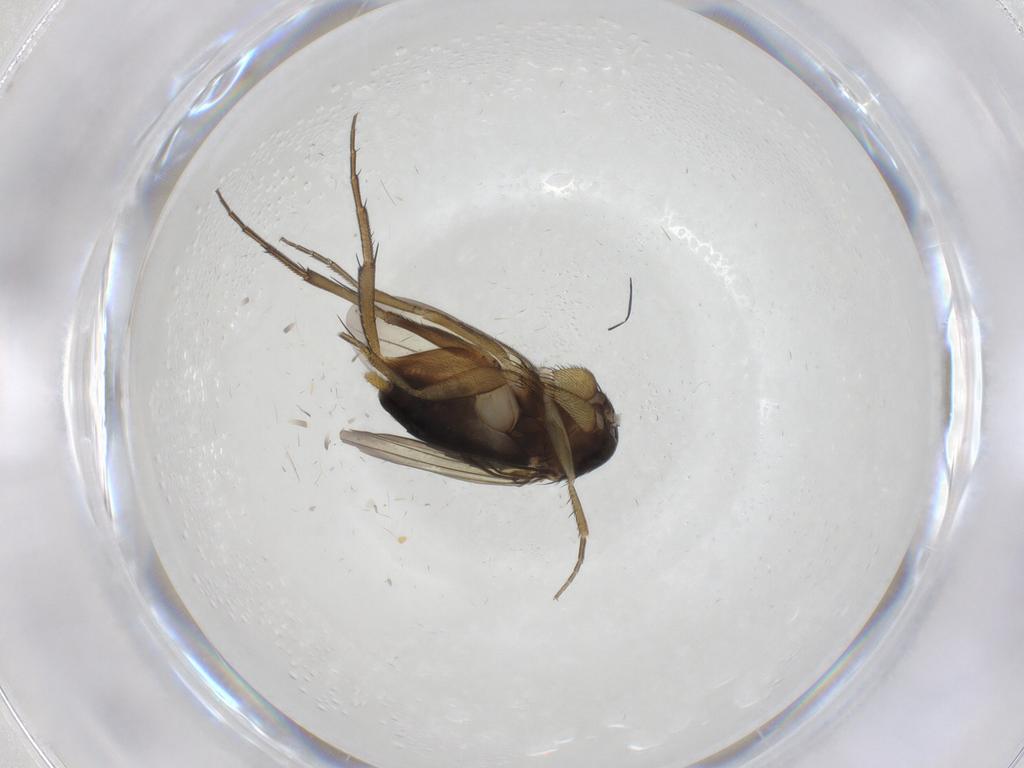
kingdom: Animalia
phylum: Arthropoda
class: Insecta
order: Diptera
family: Phoridae
